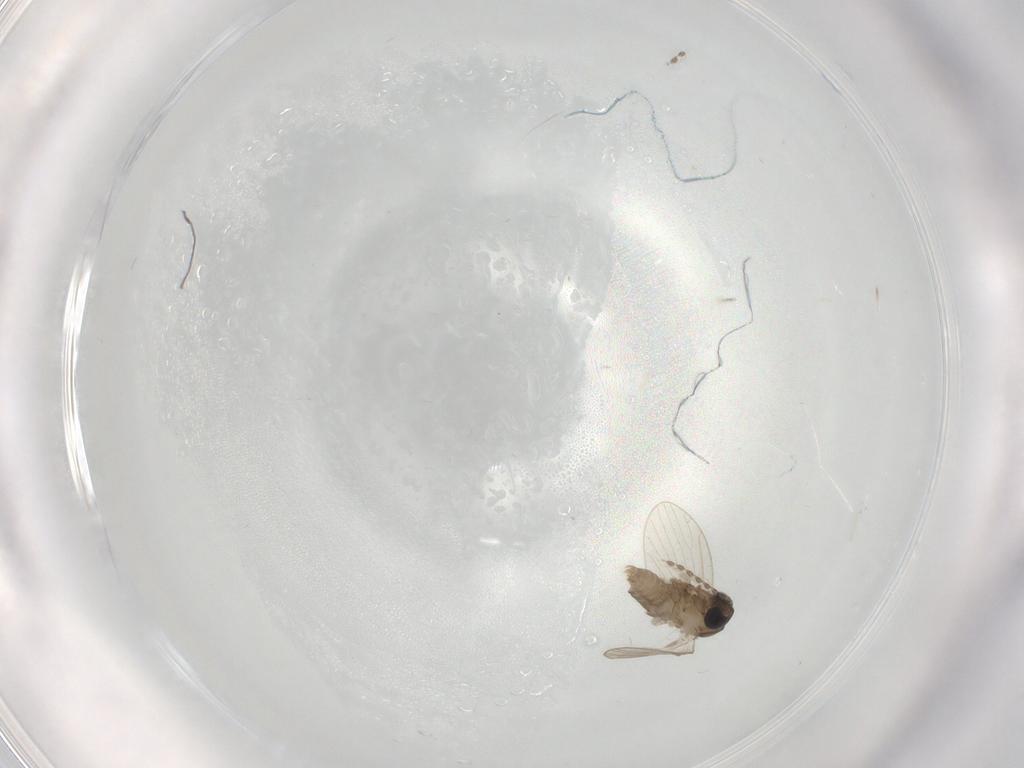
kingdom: Animalia
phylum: Arthropoda
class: Insecta
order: Diptera
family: Psychodidae
